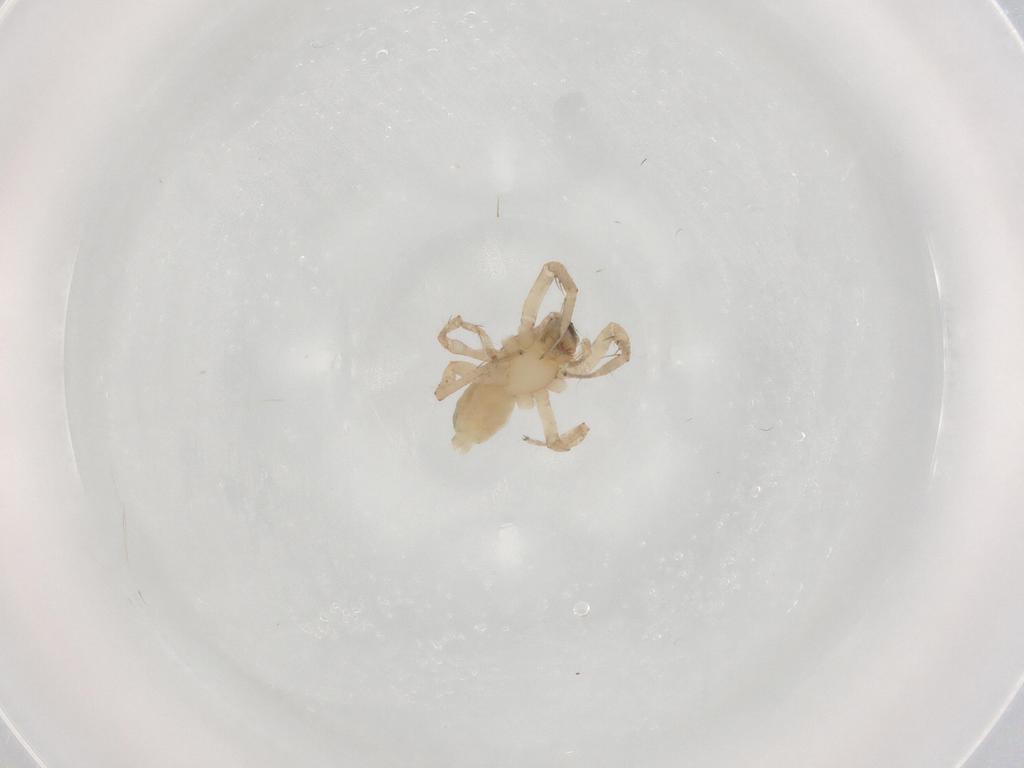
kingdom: Animalia
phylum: Arthropoda
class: Arachnida
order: Araneae
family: Anyphaenidae
